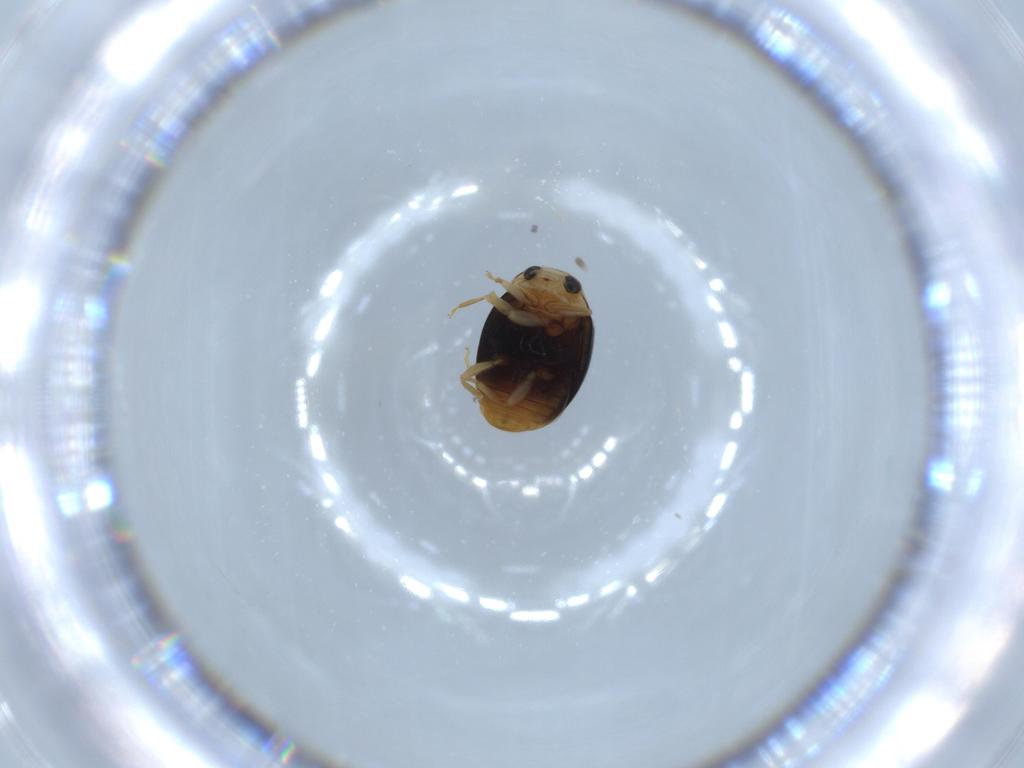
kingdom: Animalia
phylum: Arthropoda
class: Insecta
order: Coleoptera
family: Coccinellidae
